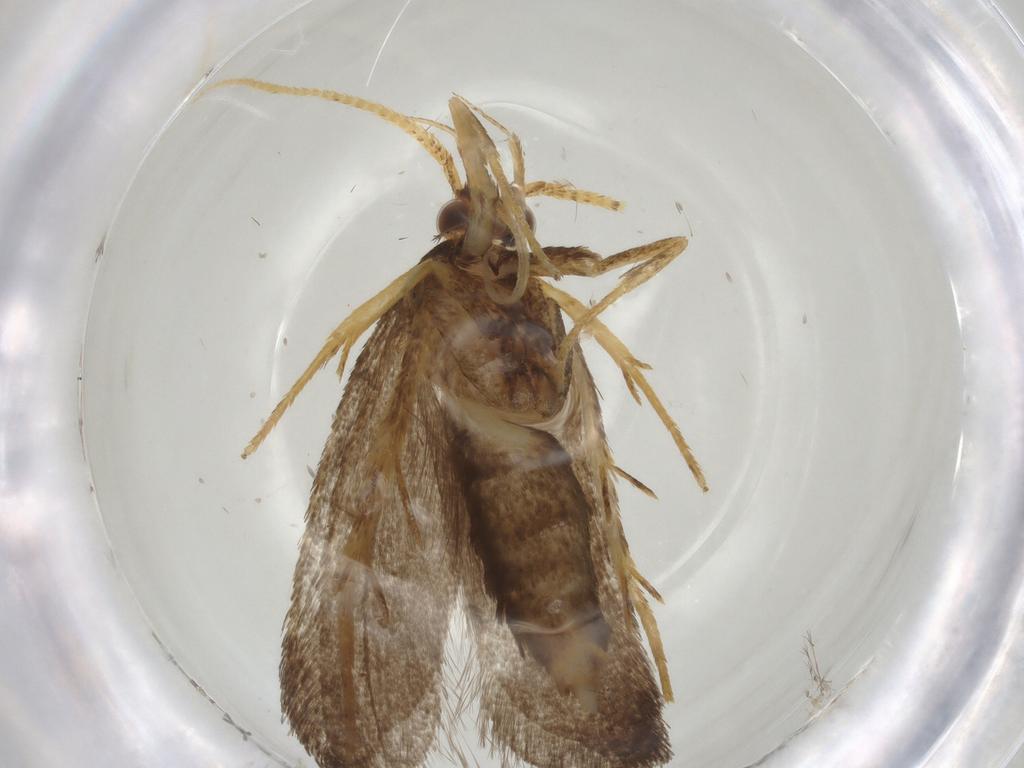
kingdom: Animalia
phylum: Arthropoda
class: Insecta
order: Lepidoptera
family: Lecithoceridae
